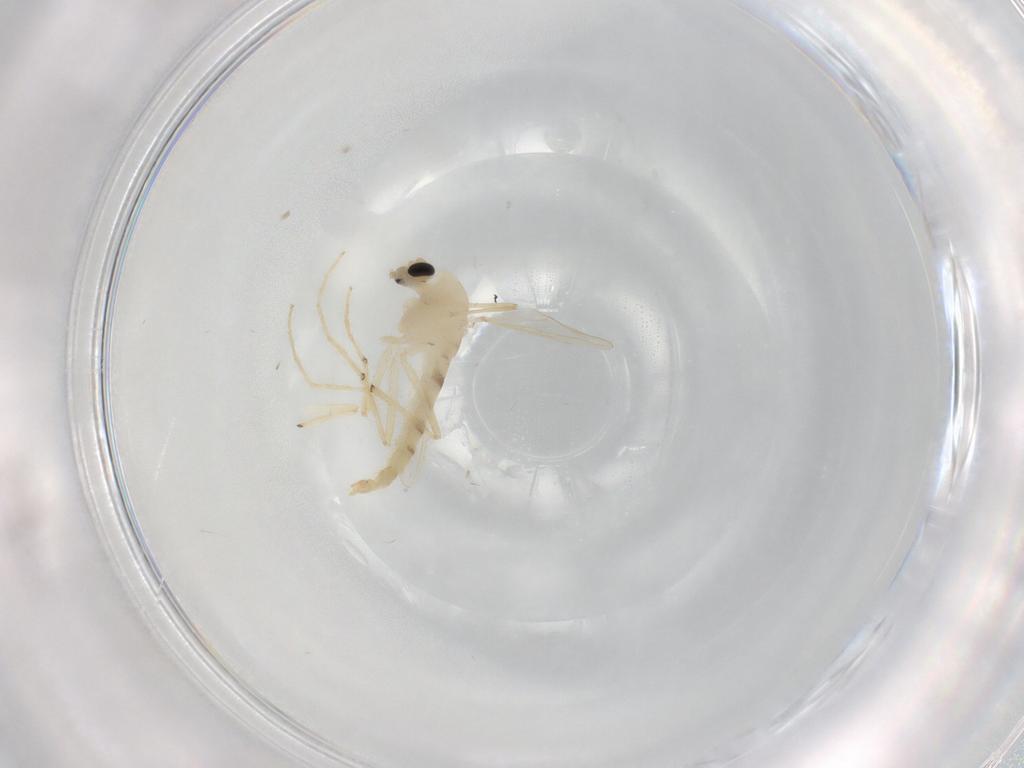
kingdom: Animalia
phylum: Arthropoda
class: Insecta
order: Diptera
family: Chironomidae
